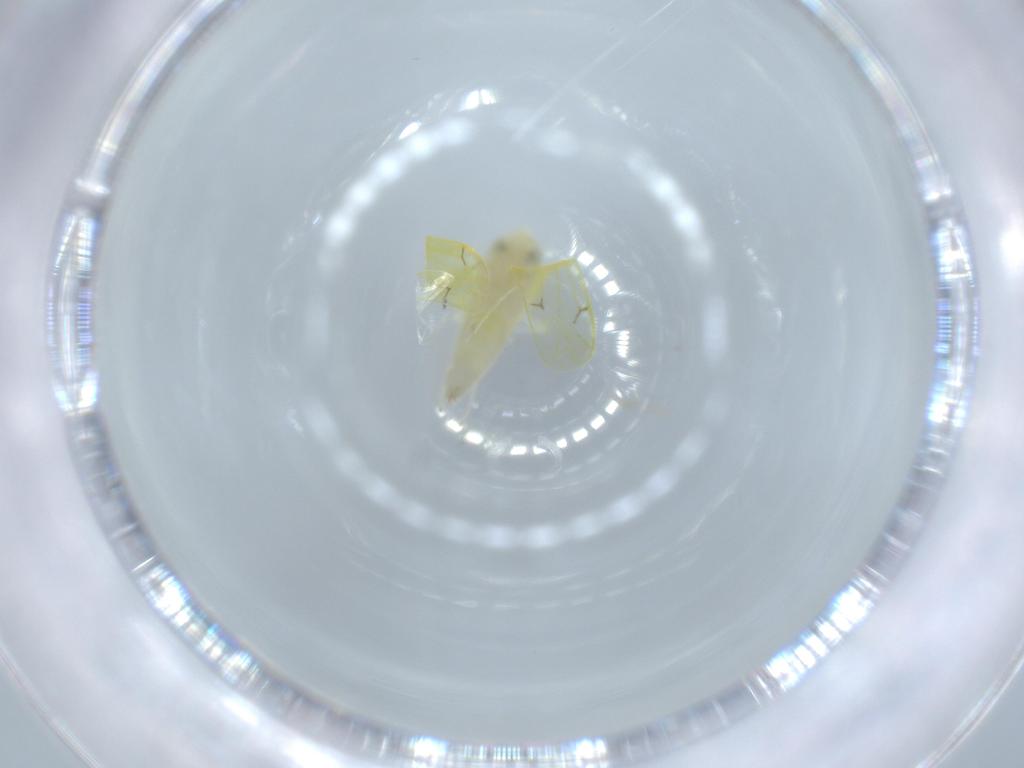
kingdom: Animalia
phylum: Arthropoda
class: Insecta
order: Hemiptera
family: Cicadellidae
